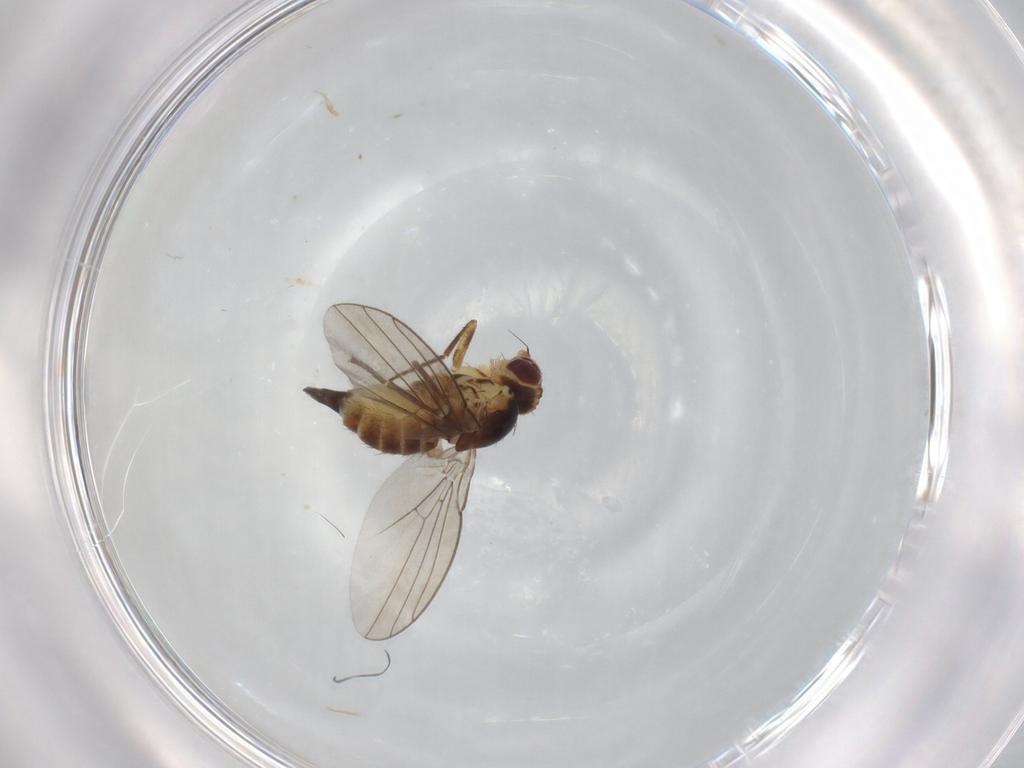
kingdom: Animalia
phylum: Arthropoda
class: Insecta
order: Diptera
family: Agromyzidae
